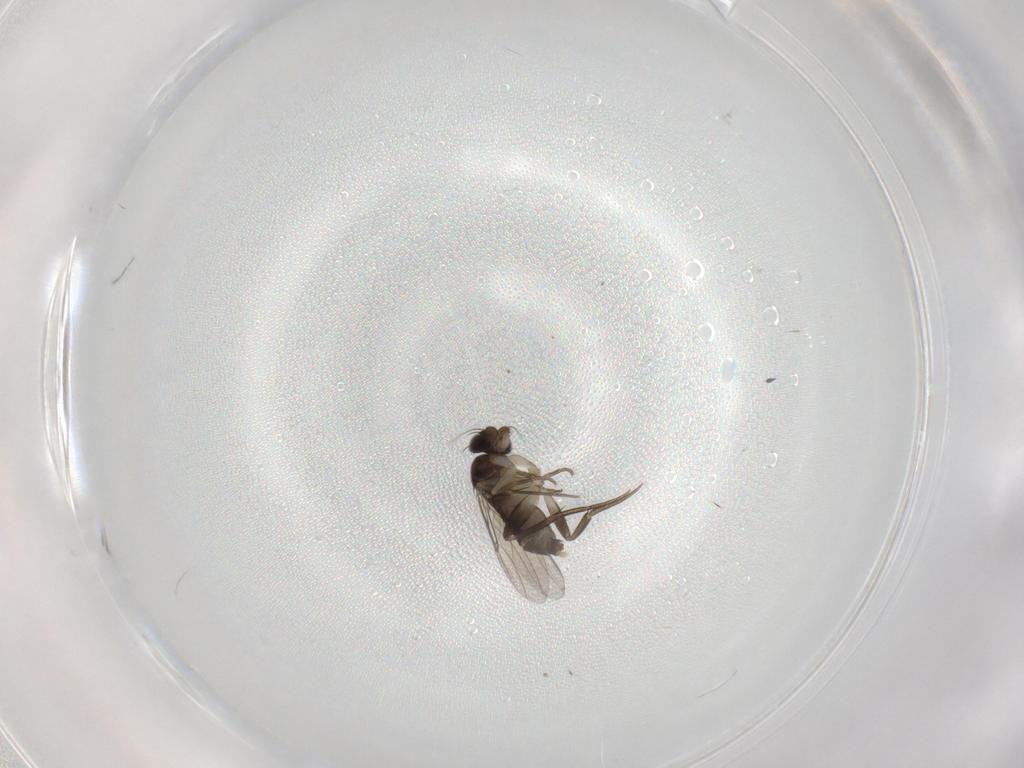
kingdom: Animalia
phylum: Arthropoda
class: Insecta
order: Diptera
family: Phoridae
